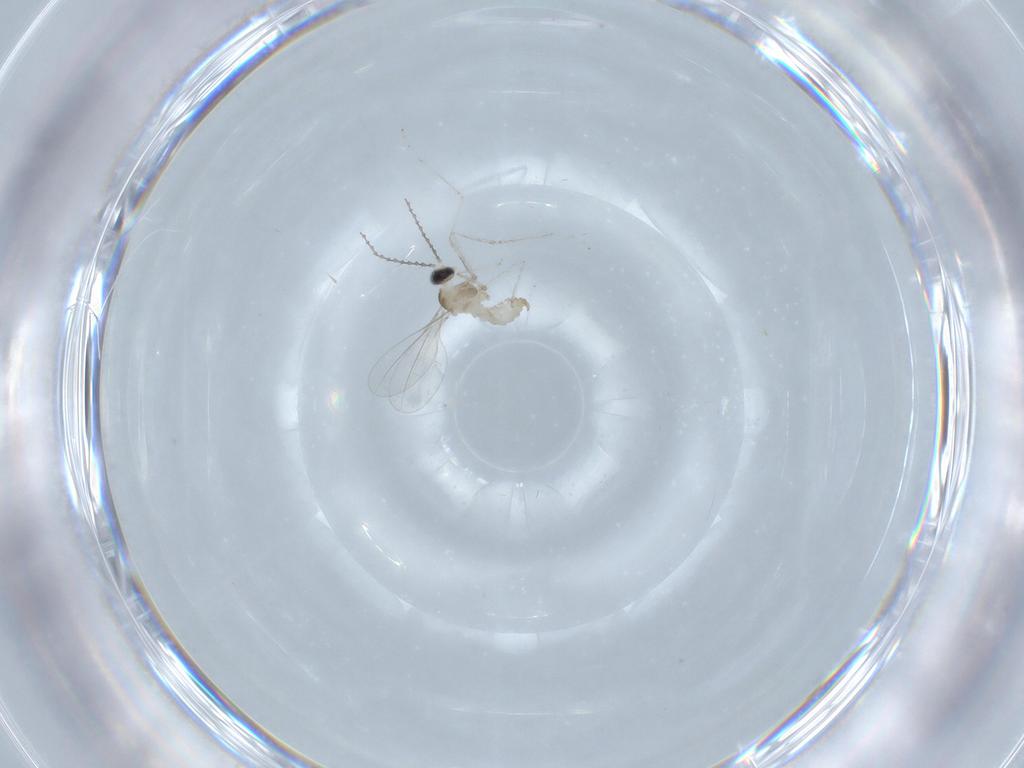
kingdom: Animalia
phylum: Arthropoda
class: Insecta
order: Diptera
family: Cecidomyiidae
